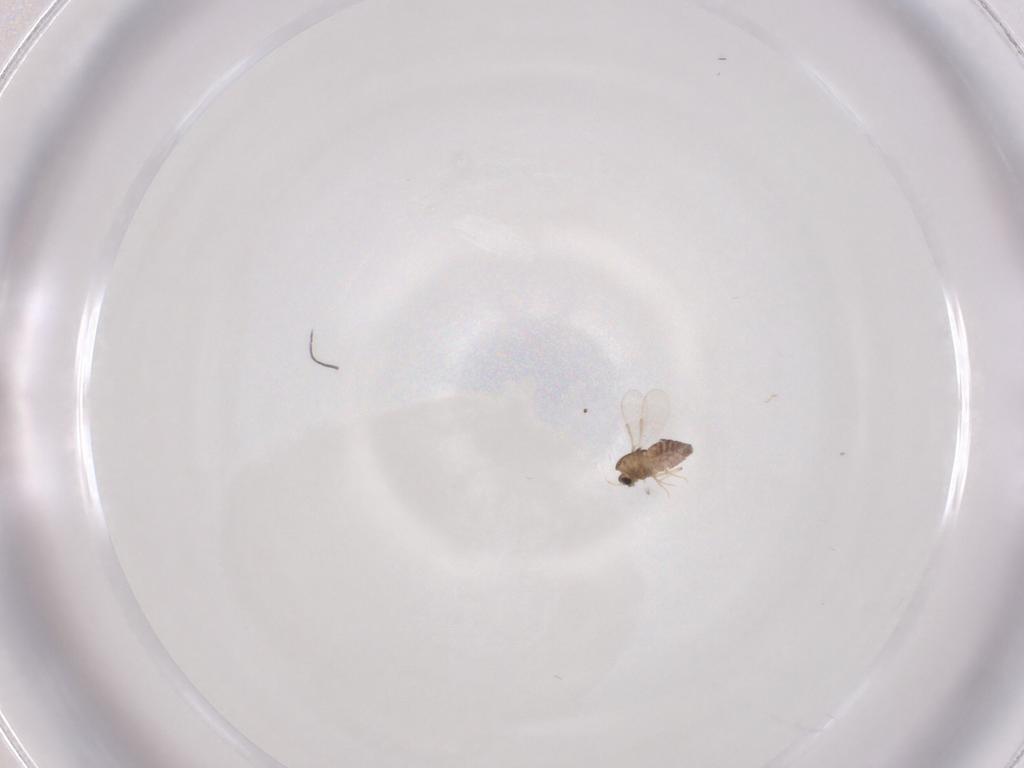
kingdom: Animalia
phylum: Arthropoda
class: Insecta
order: Diptera
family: Chironomidae
